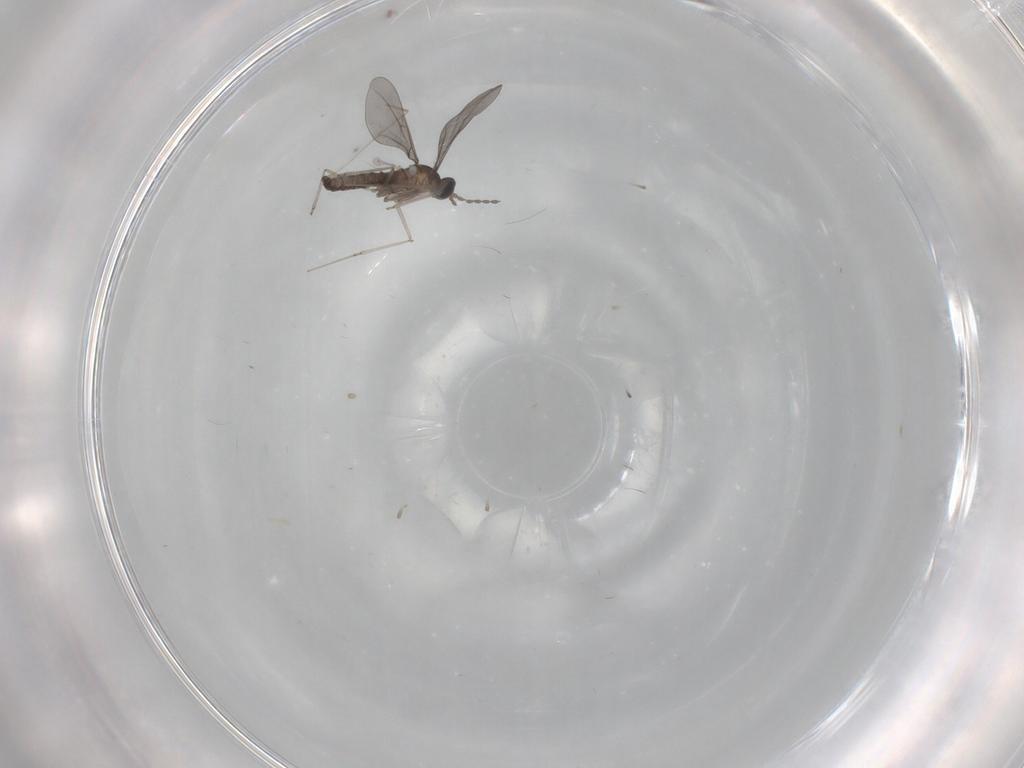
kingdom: Animalia
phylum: Arthropoda
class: Insecta
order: Diptera
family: Cecidomyiidae
